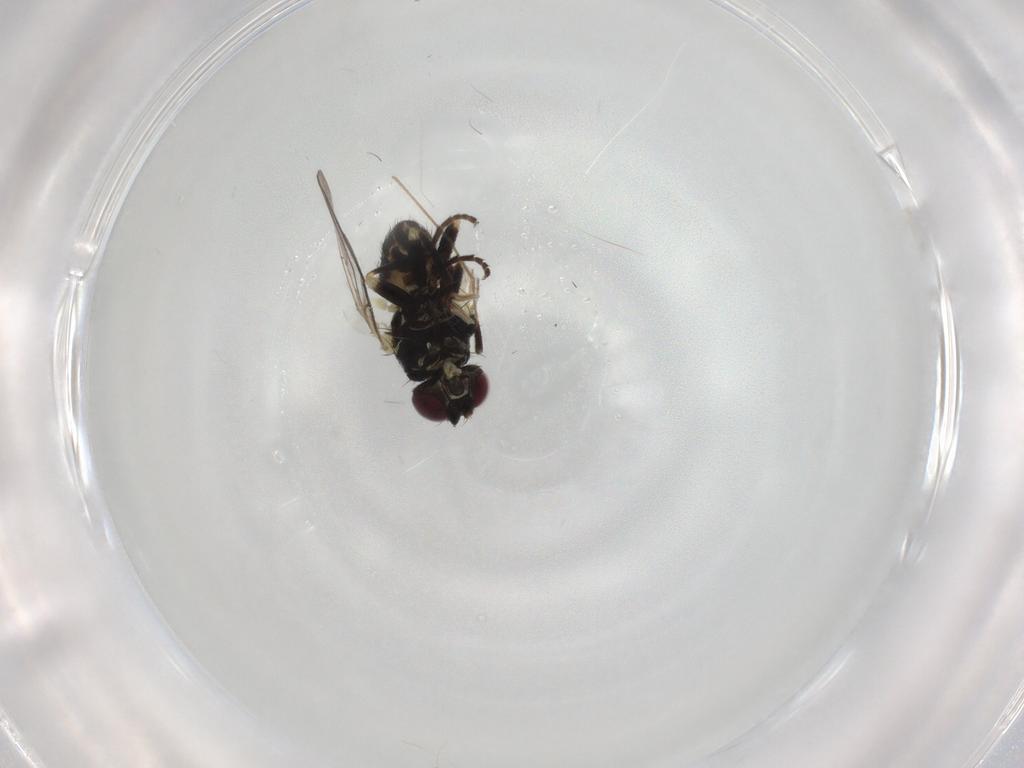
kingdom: Animalia
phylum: Arthropoda
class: Insecta
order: Diptera
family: Agromyzidae
